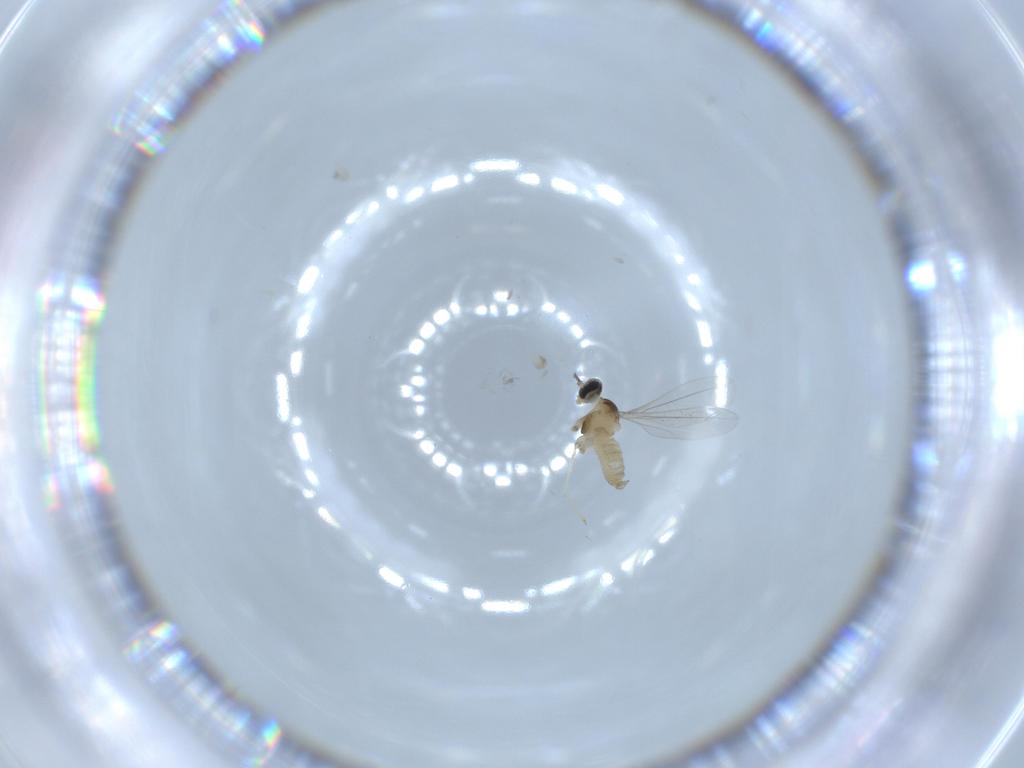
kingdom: Animalia
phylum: Arthropoda
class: Insecta
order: Diptera
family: Cecidomyiidae
